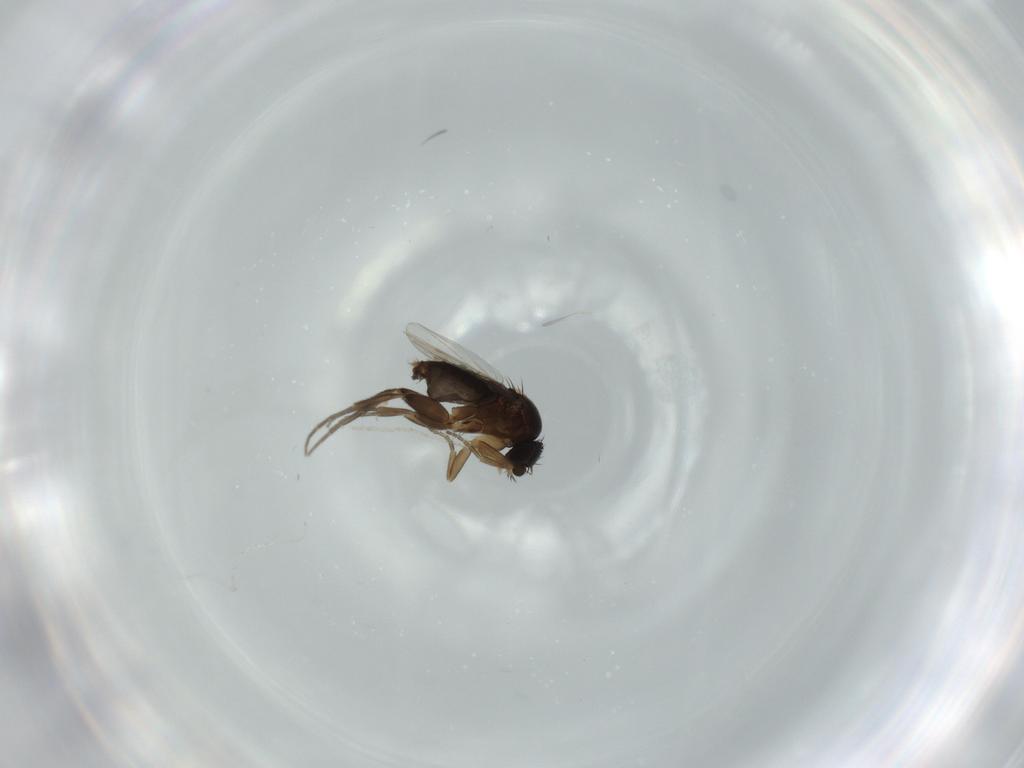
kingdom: Animalia
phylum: Arthropoda
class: Insecta
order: Diptera
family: Phoridae
